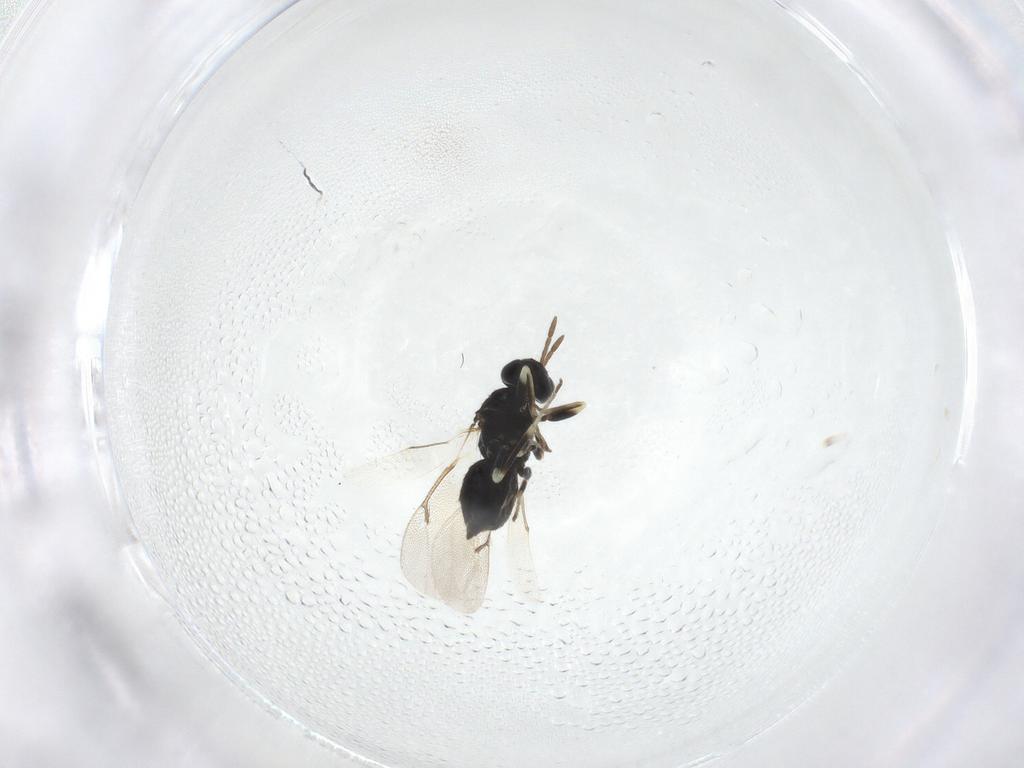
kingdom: Animalia
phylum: Arthropoda
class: Insecta
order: Hymenoptera
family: Eulophidae
